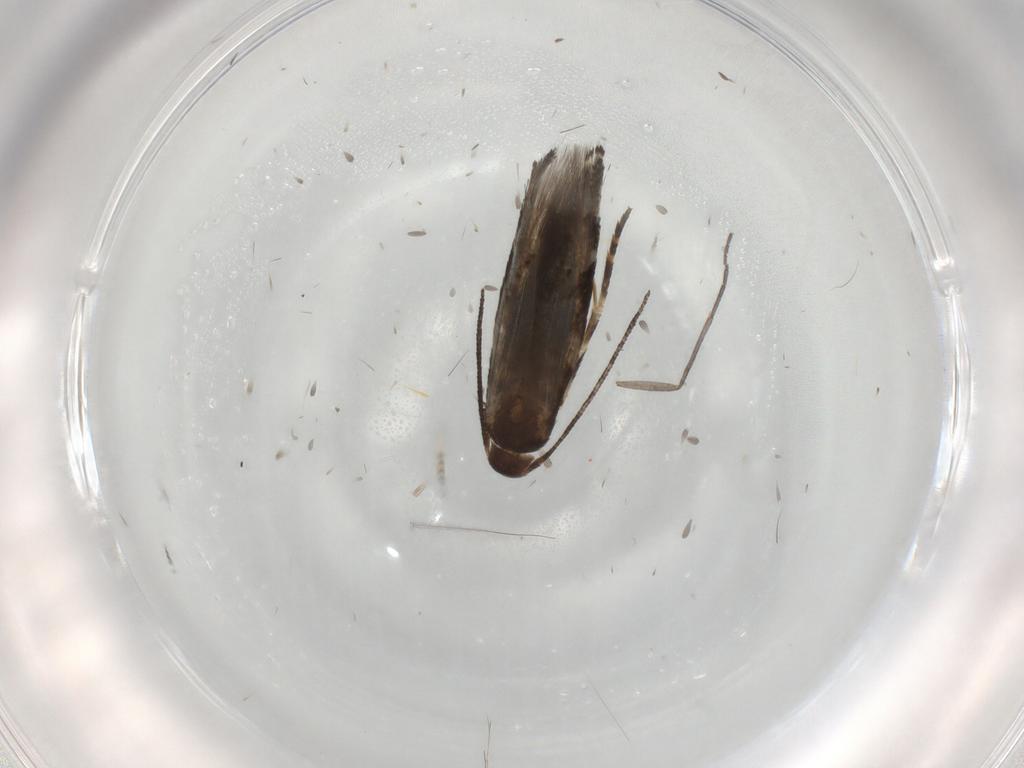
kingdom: Animalia
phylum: Arthropoda
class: Insecta
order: Lepidoptera
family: Momphidae
